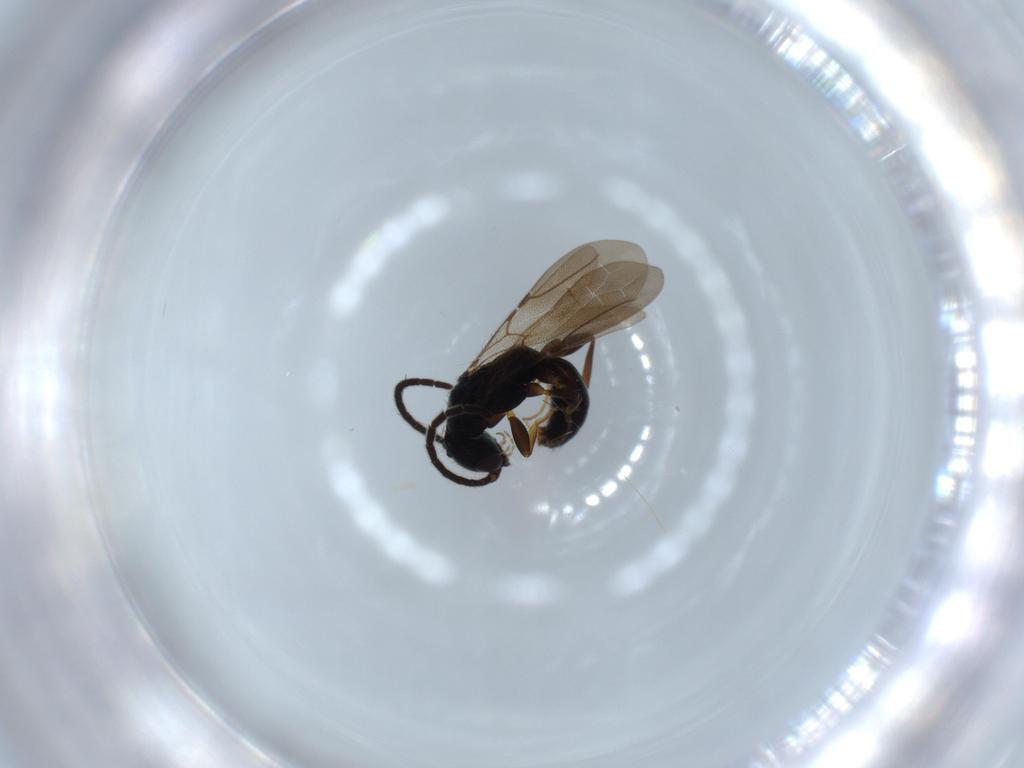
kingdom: Animalia
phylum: Arthropoda
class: Insecta
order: Hymenoptera
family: Bethylidae
